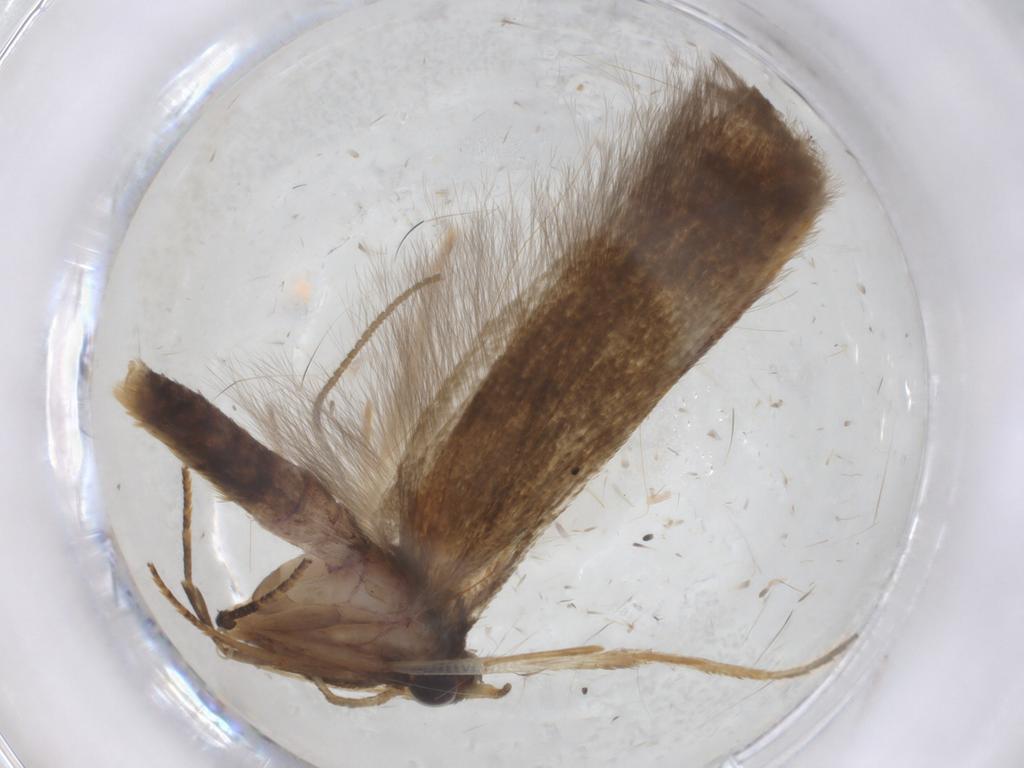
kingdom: Animalia
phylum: Arthropoda
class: Insecta
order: Lepidoptera
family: Blastobasidae
